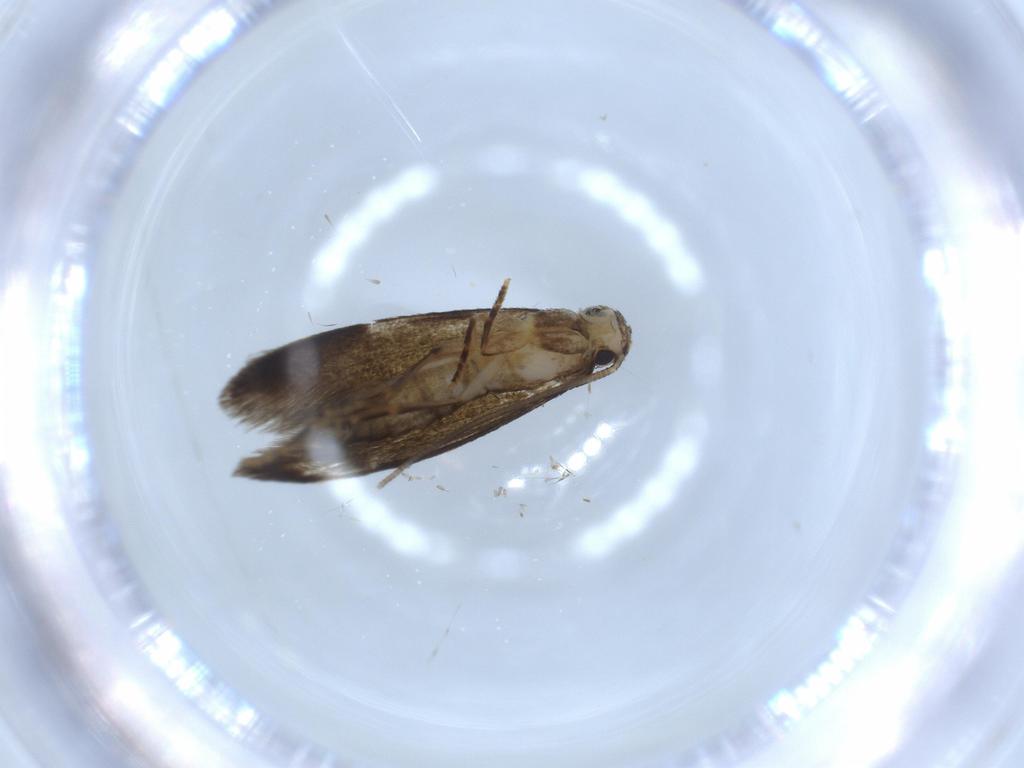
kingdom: Animalia
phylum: Arthropoda
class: Insecta
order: Lepidoptera
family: Tineidae
